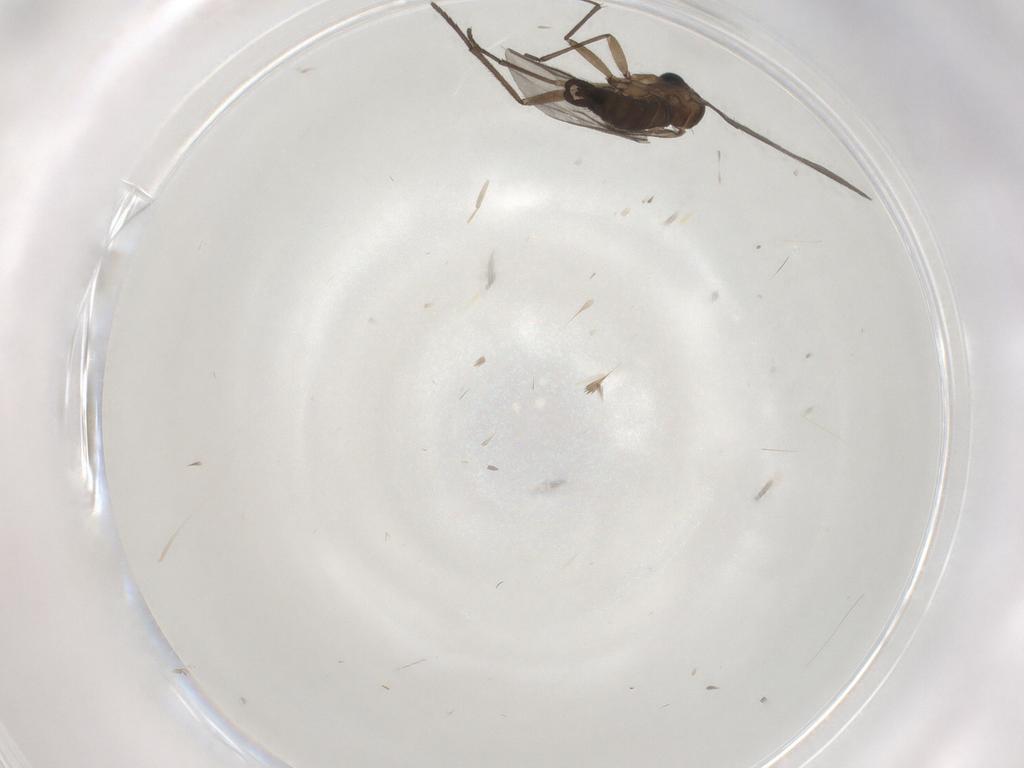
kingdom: Animalia
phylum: Arthropoda
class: Insecta
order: Diptera
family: Sciaridae
